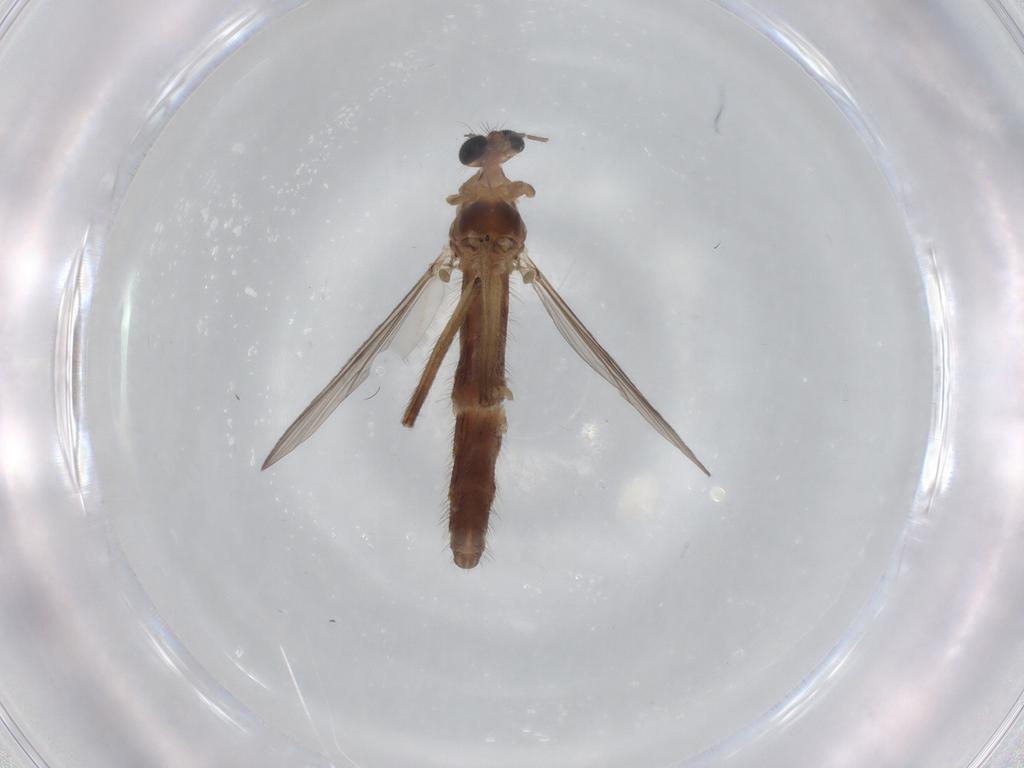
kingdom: Animalia
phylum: Arthropoda
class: Insecta
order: Diptera
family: Chironomidae
